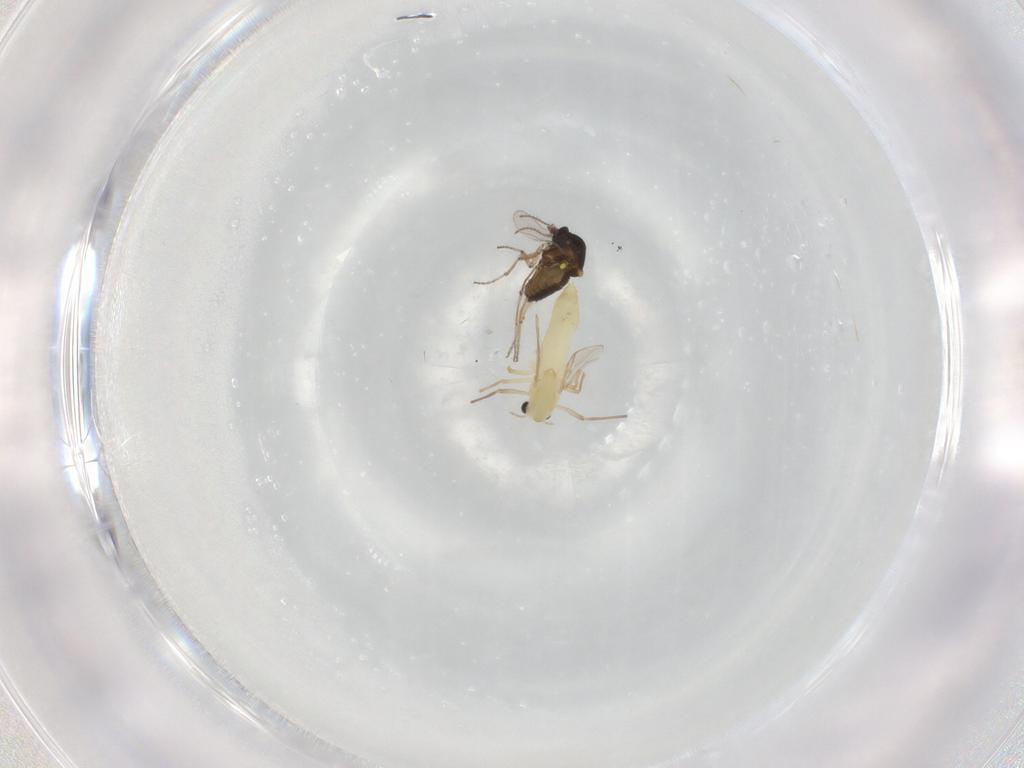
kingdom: Animalia
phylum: Arthropoda
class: Insecta
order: Diptera
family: Chironomidae
